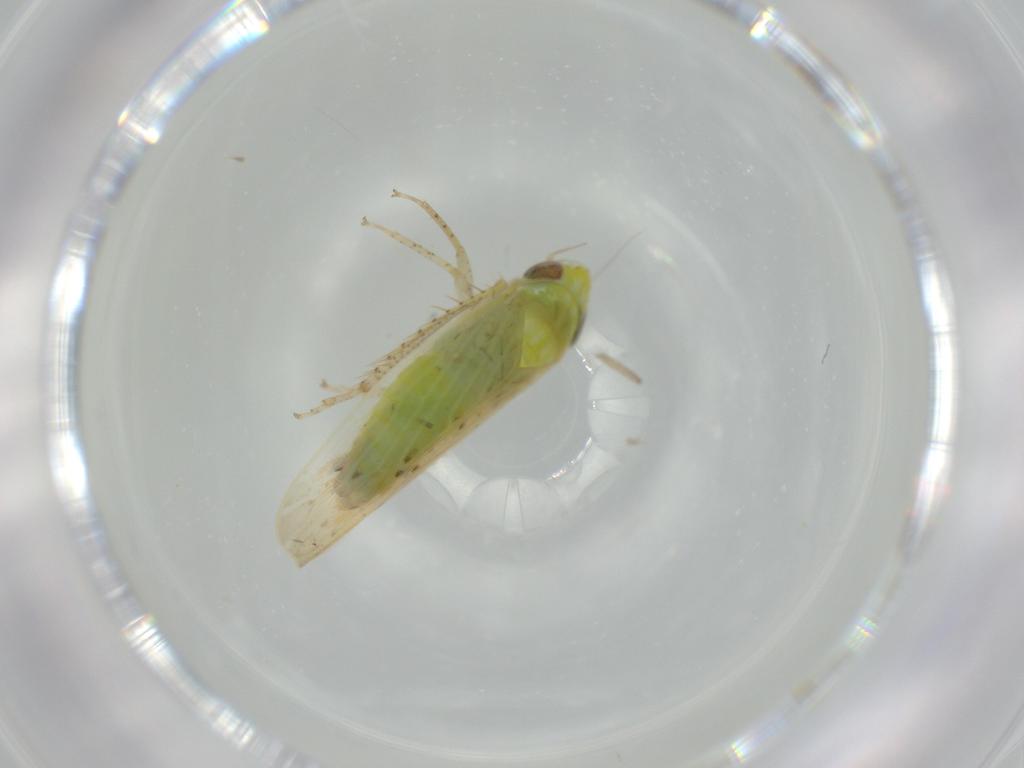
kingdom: Animalia
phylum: Arthropoda
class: Insecta
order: Hemiptera
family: Cicadellidae
